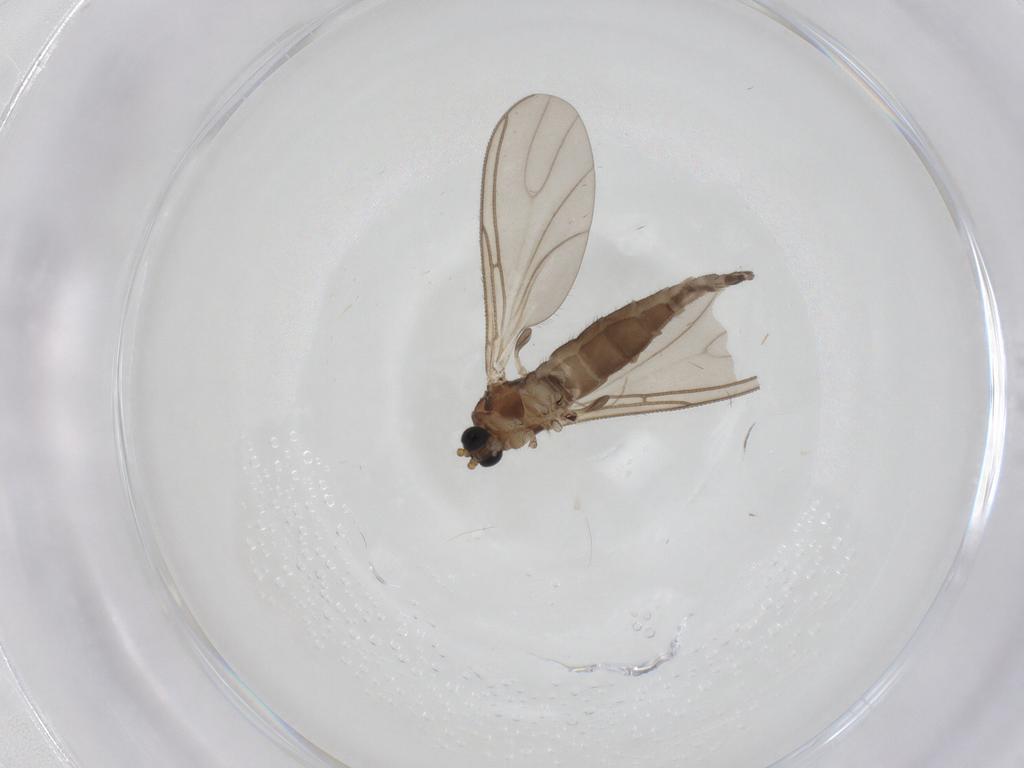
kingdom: Animalia
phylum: Arthropoda
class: Insecta
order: Diptera
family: Sciaridae
